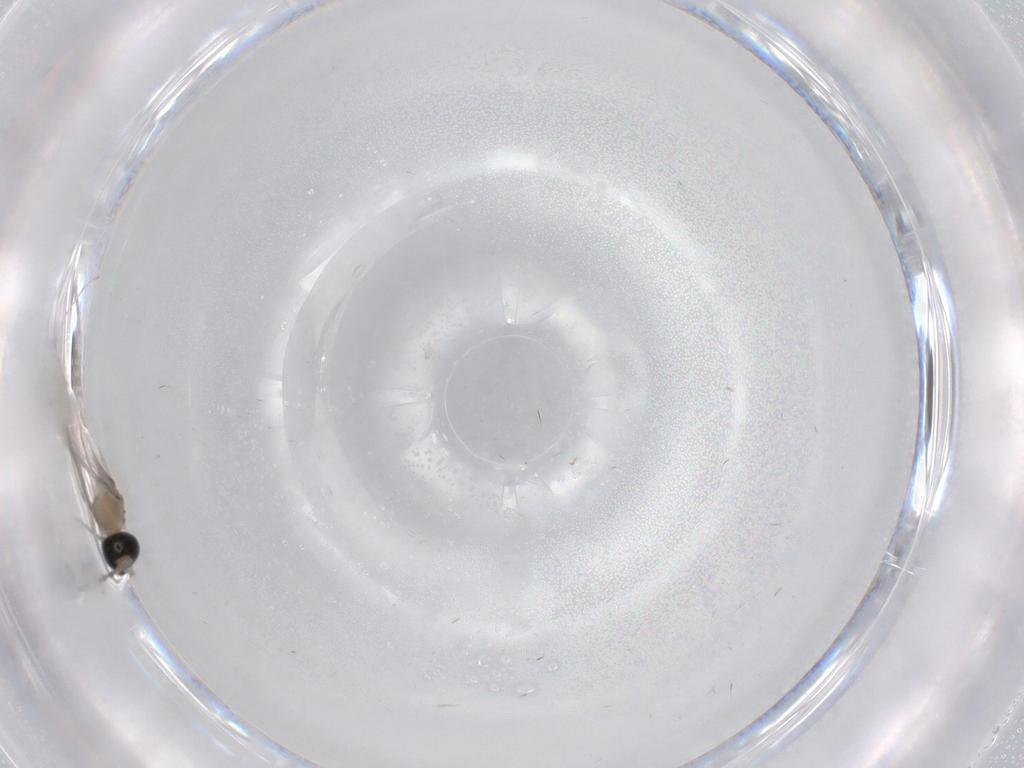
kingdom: Animalia
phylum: Arthropoda
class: Insecta
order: Diptera
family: Cecidomyiidae
